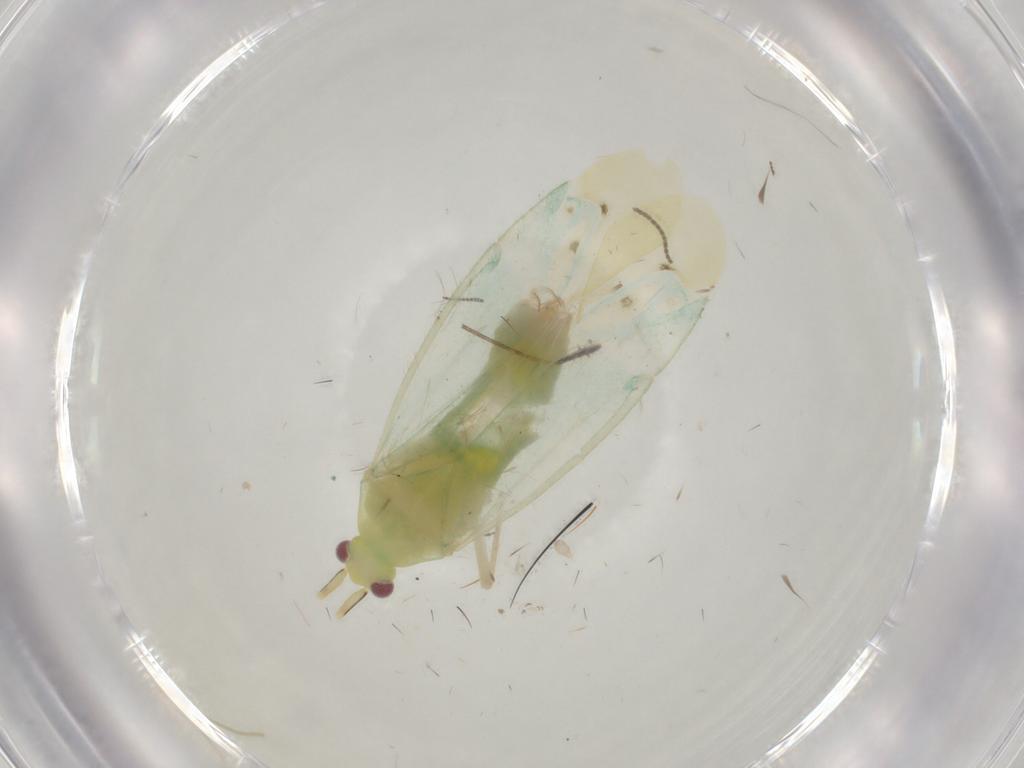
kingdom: Animalia
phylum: Arthropoda
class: Insecta
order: Hemiptera
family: Miridae
